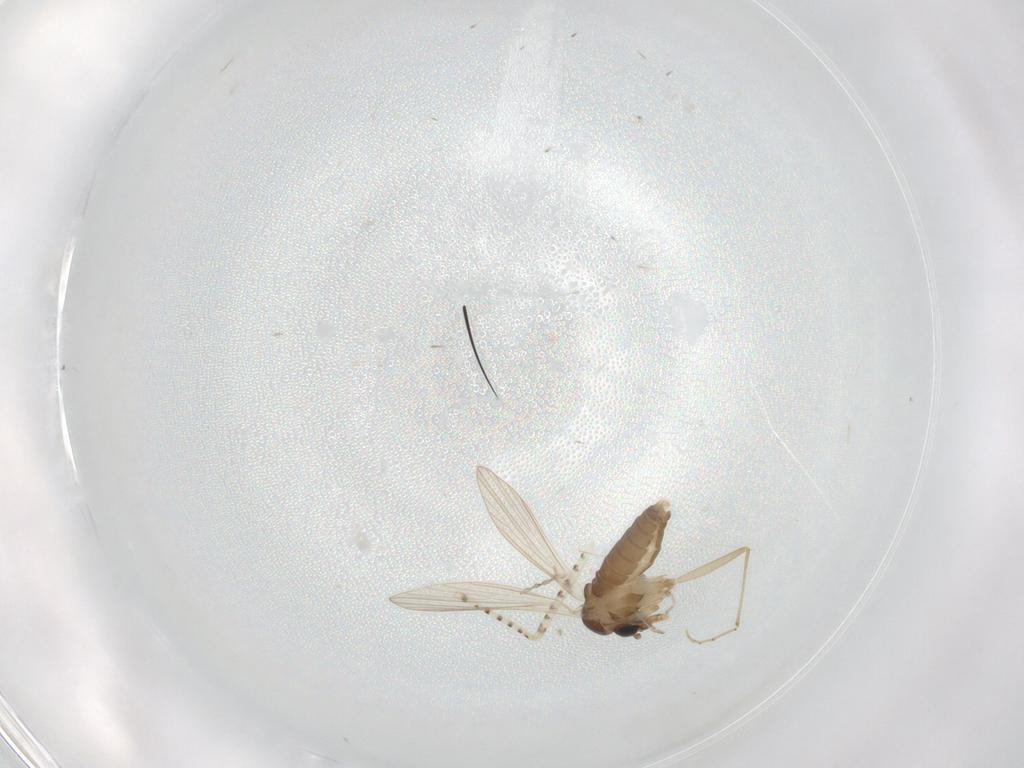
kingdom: Animalia
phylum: Arthropoda
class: Insecta
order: Diptera
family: Psychodidae
